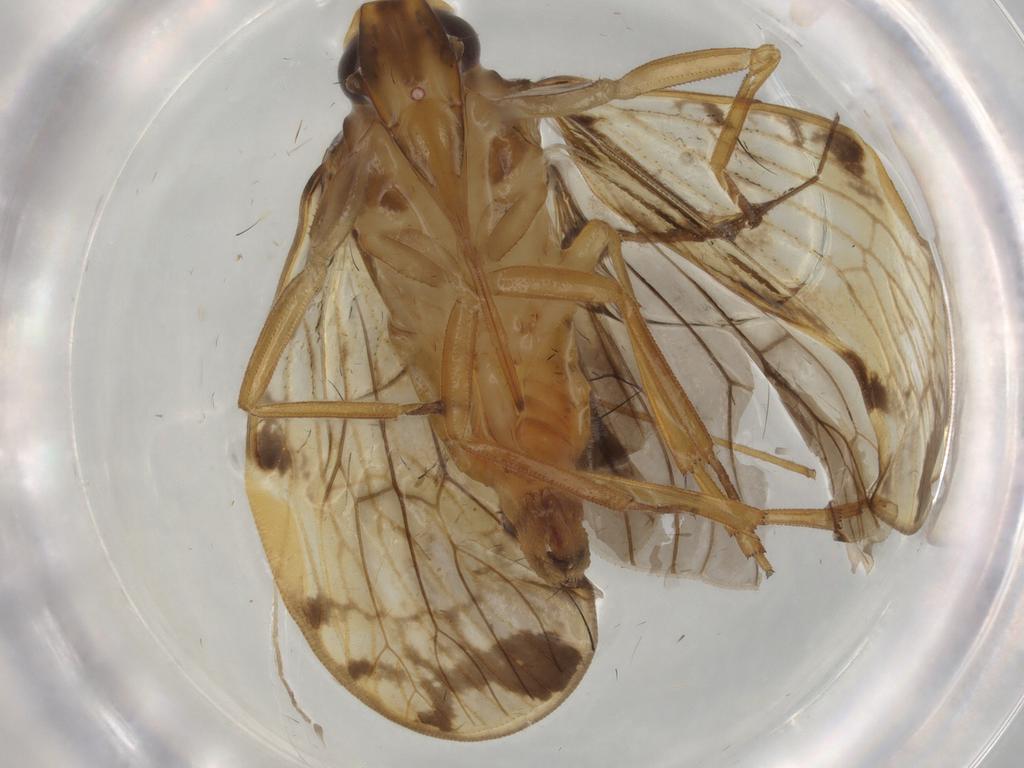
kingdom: Animalia
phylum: Arthropoda
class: Insecta
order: Hemiptera
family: Cixiidae
